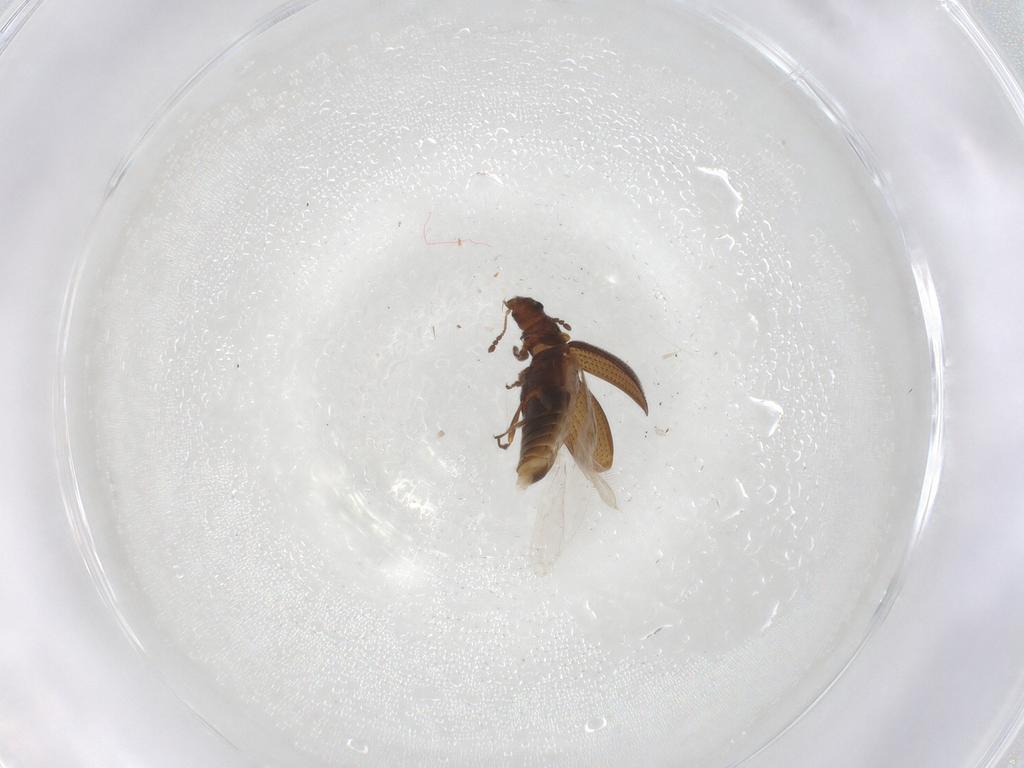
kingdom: Animalia
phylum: Arthropoda
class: Insecta
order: Coleoptera
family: Latridiidae
